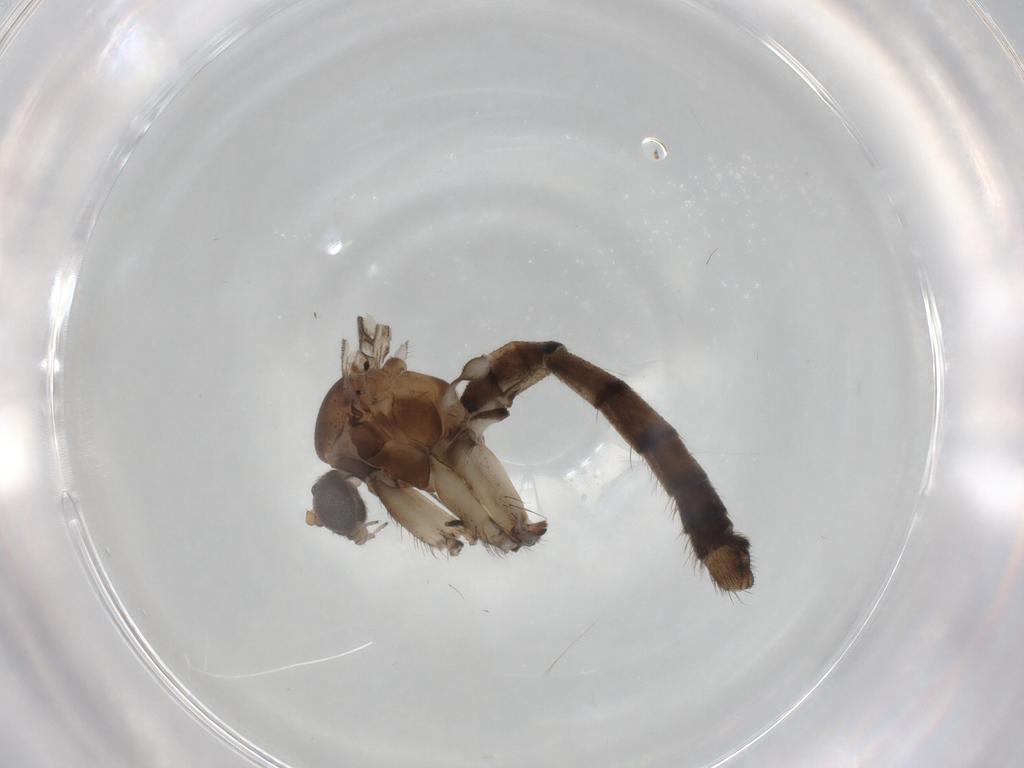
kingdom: Animalia
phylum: Arthropoda
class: Insecta
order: Diptera
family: Mycetophilidae
